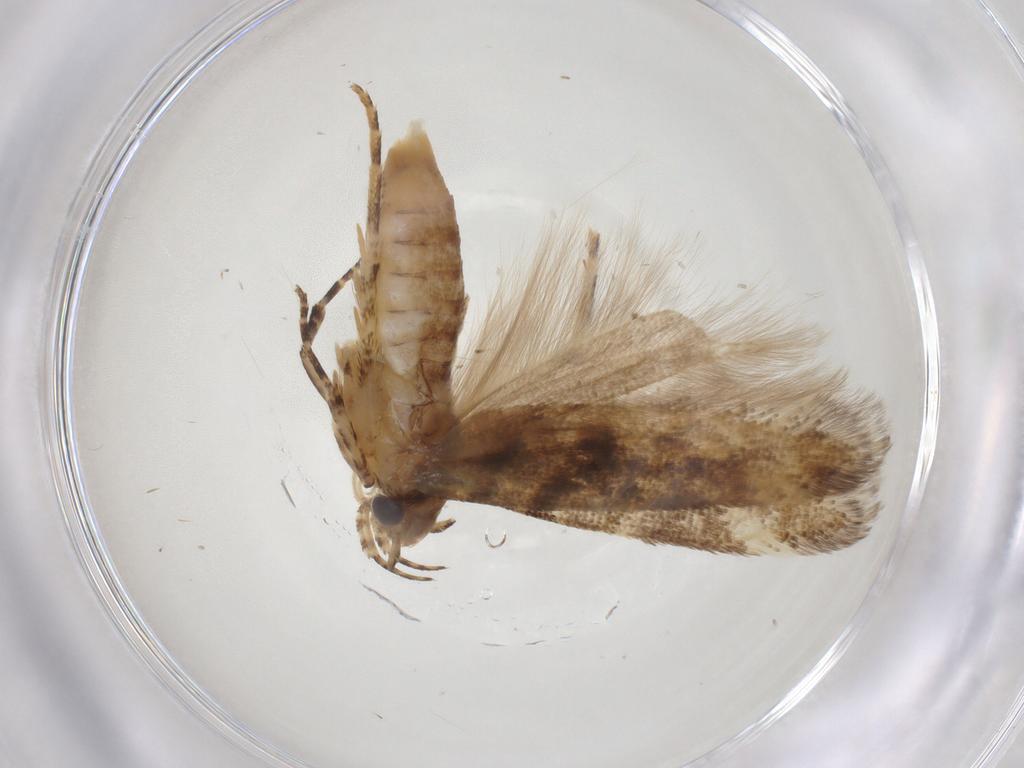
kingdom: Animalia
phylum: Arthropoda
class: Insecta
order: Lepidoptera
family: Gelechiidae
